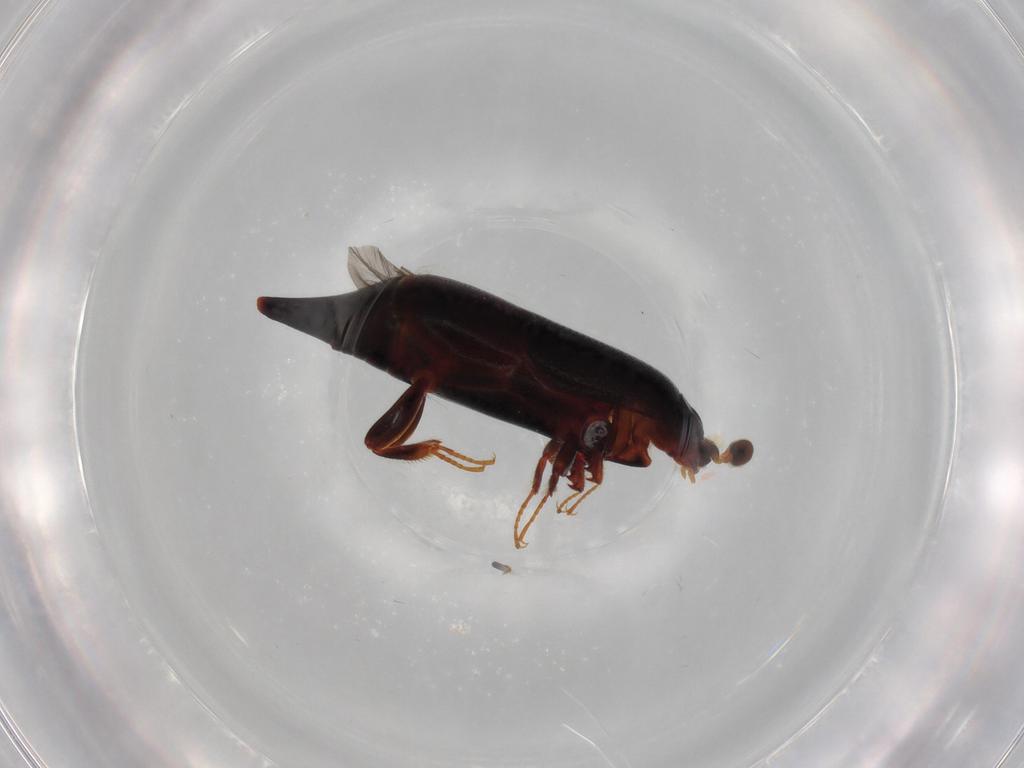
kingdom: Animalia
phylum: Arthropoda
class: Insecta
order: Coleoptera
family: Histeridae
